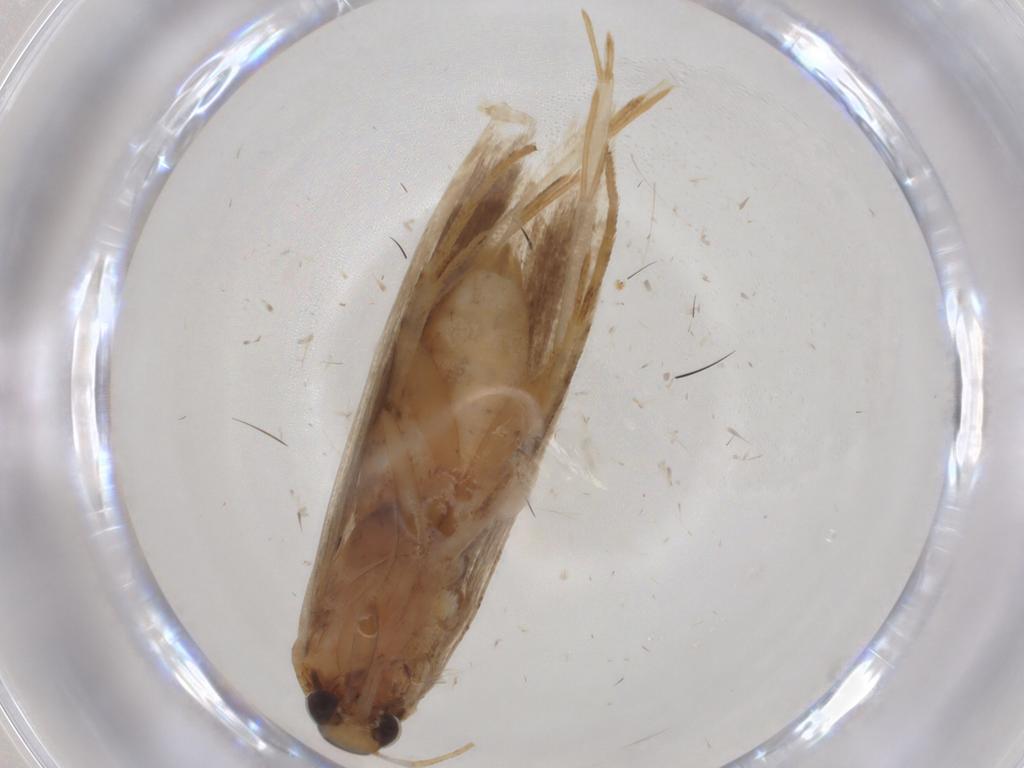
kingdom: Animalia
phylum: Arthropoda
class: Insecta
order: Lepidoptera
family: Gelechiidae
